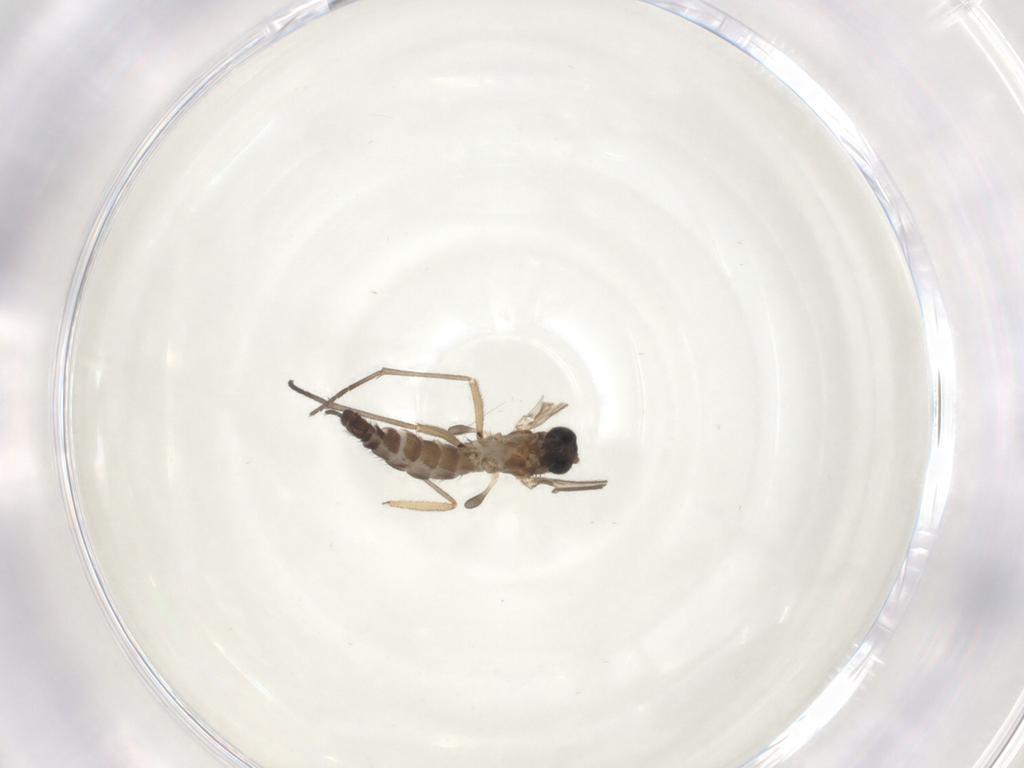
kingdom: Animalia
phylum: Arthropoda
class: Insecta
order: Diptera
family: Sciaridae
